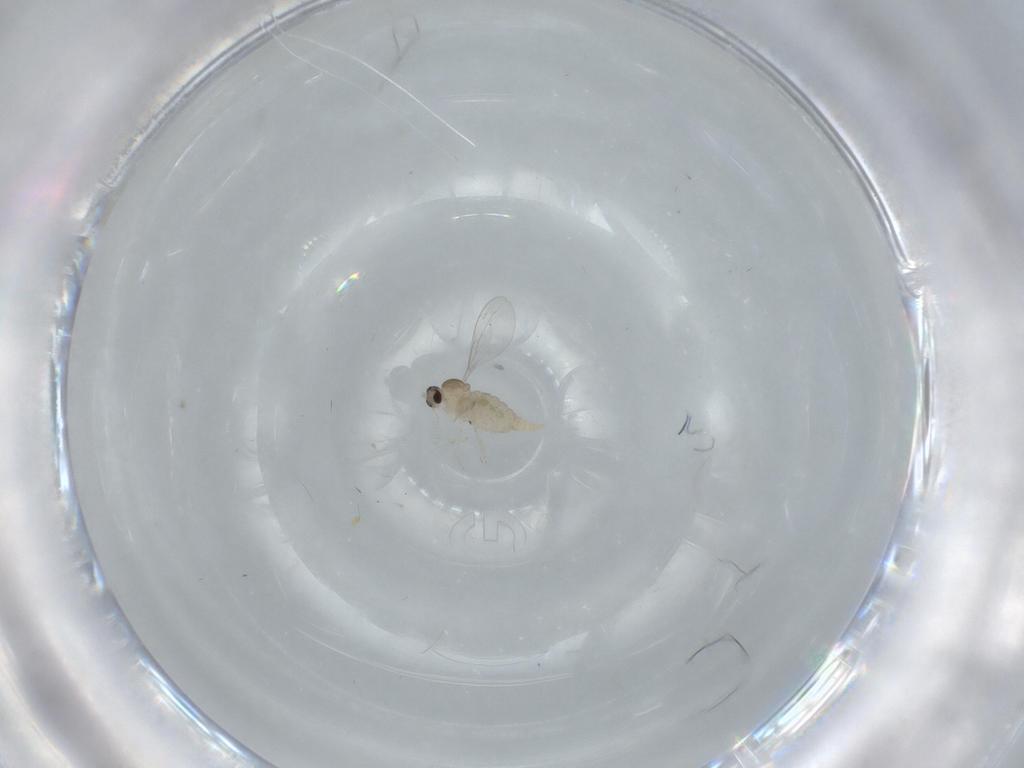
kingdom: Animalia
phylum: Arthropoda
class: Insecta
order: Diptera
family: Cecidomyiidae
